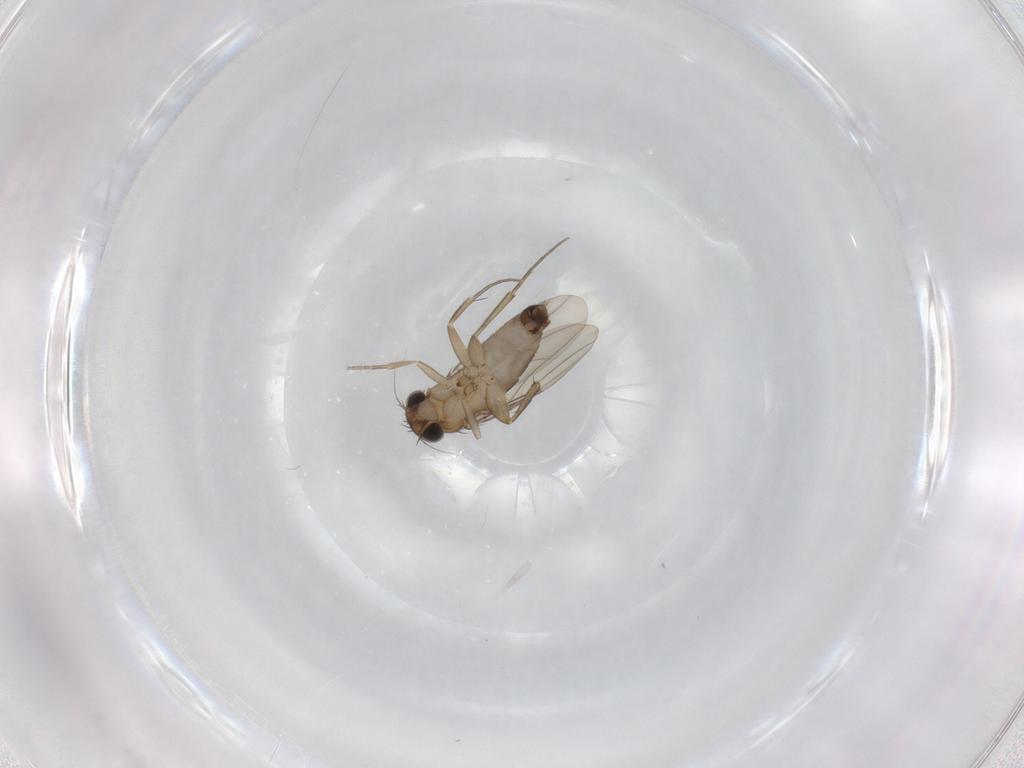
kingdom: Animalia
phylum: Arthropoda
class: Insecta
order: Diptera
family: Phoridae
